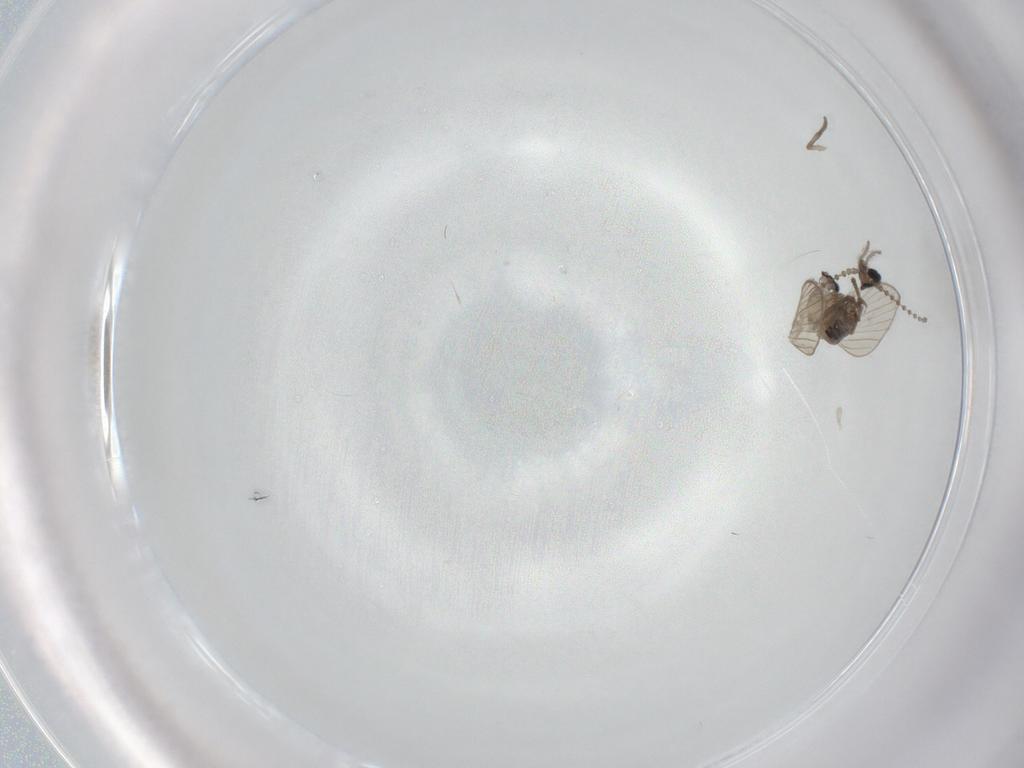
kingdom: Animalia
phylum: Arthropoda
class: Insecta
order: Diptera
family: Psychodidae
